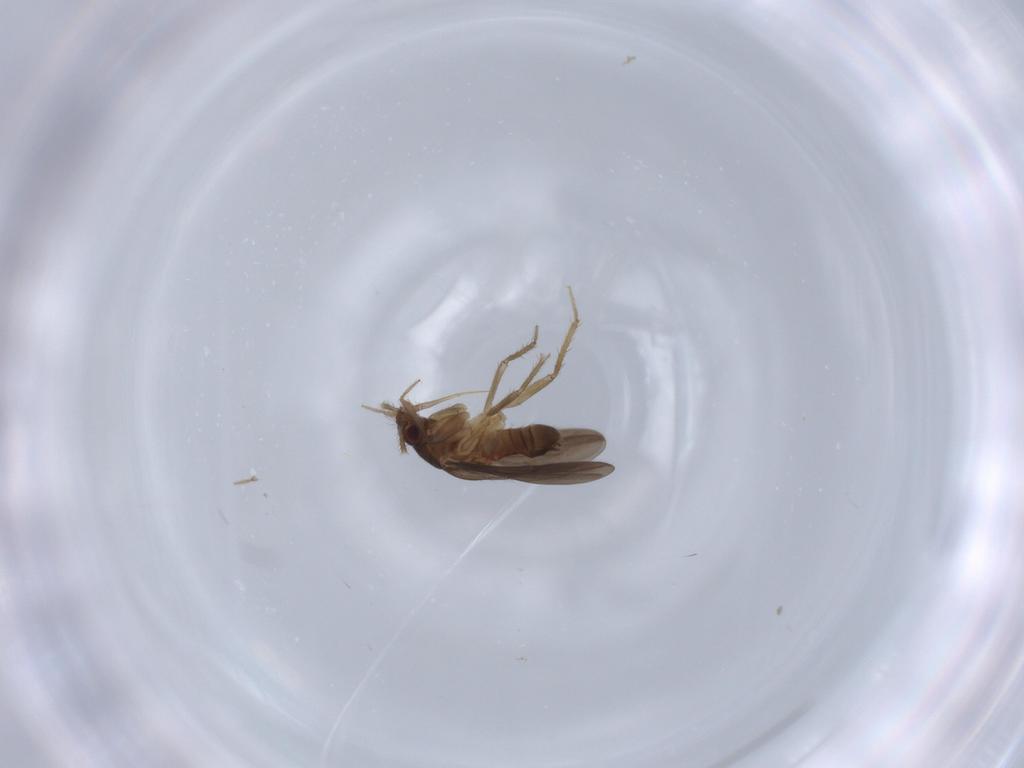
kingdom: Animalia
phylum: Arthropoda
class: Insecta
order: Hemiptera
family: Ceratocombidae
